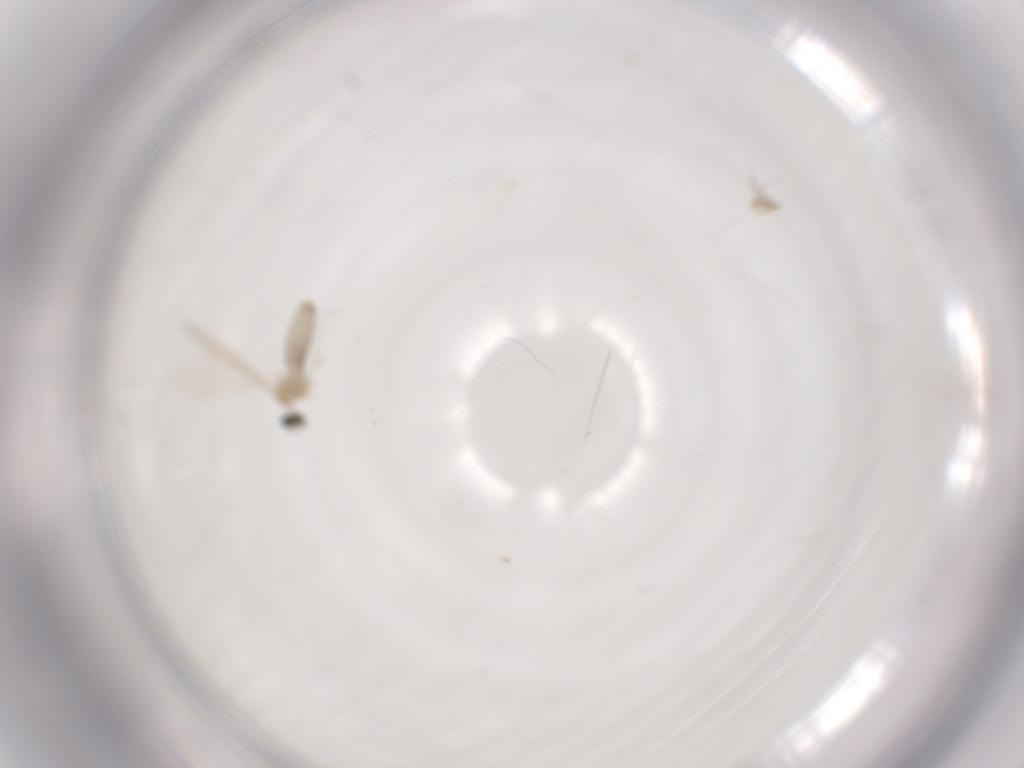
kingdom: Animalia
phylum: Arthropoda
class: Insecta
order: Diptera
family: Cecidomyiidae
